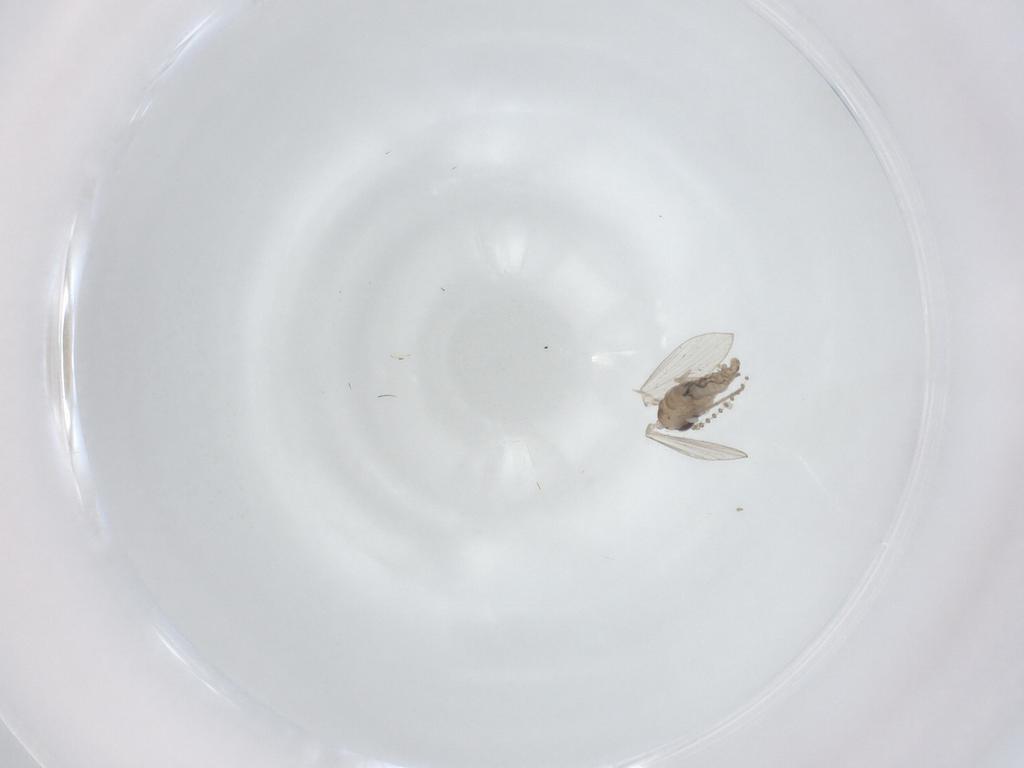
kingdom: Animalia
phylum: Arthropoda
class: Insecta
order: Diptera
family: Psychodidae
